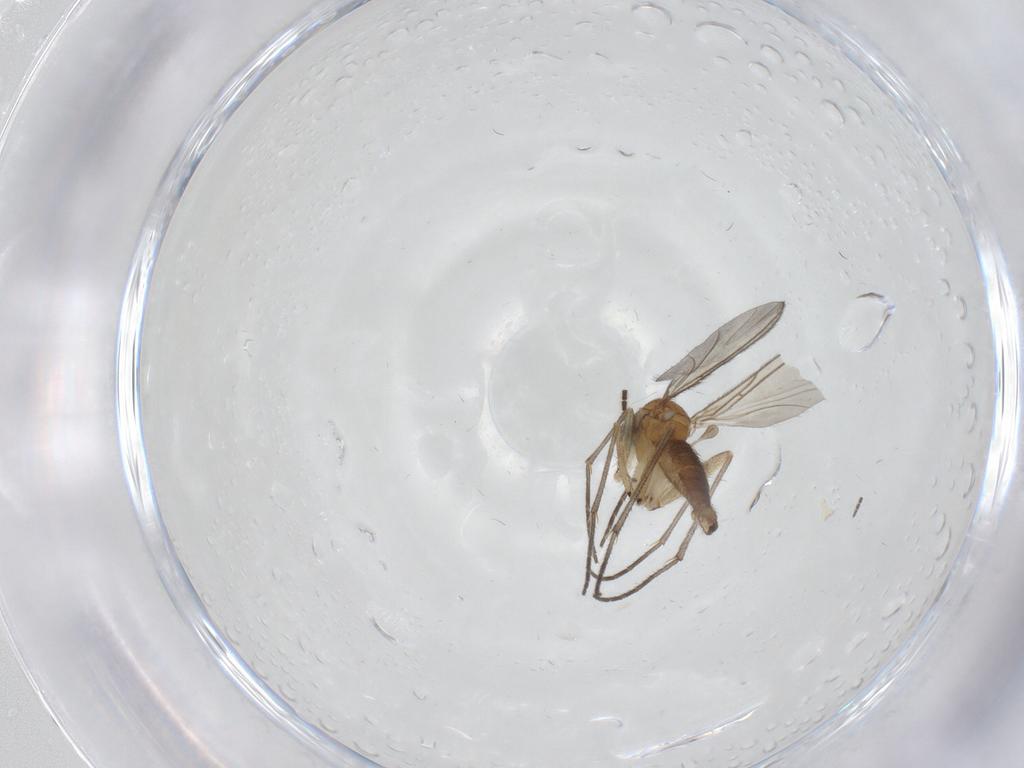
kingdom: Animalia
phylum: Arthropoda
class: Insecta
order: Diptera
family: Sciaridae
